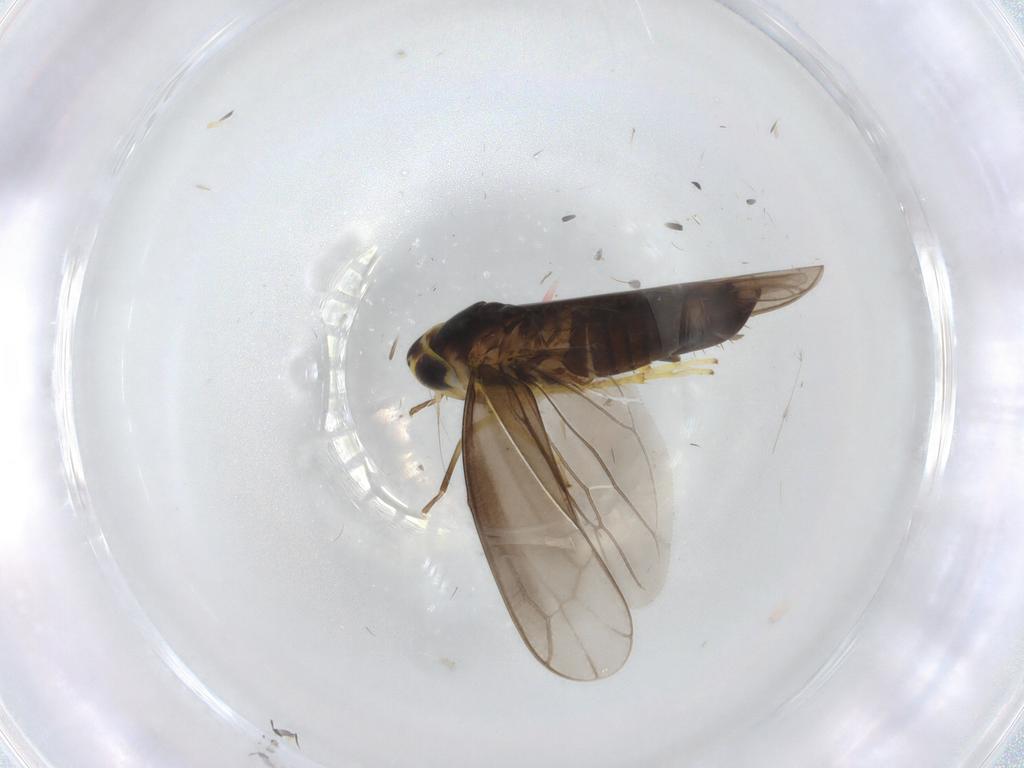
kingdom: Animalia
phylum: Arthropoda
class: Insecta
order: Hemiptera
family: Cicadellidae
